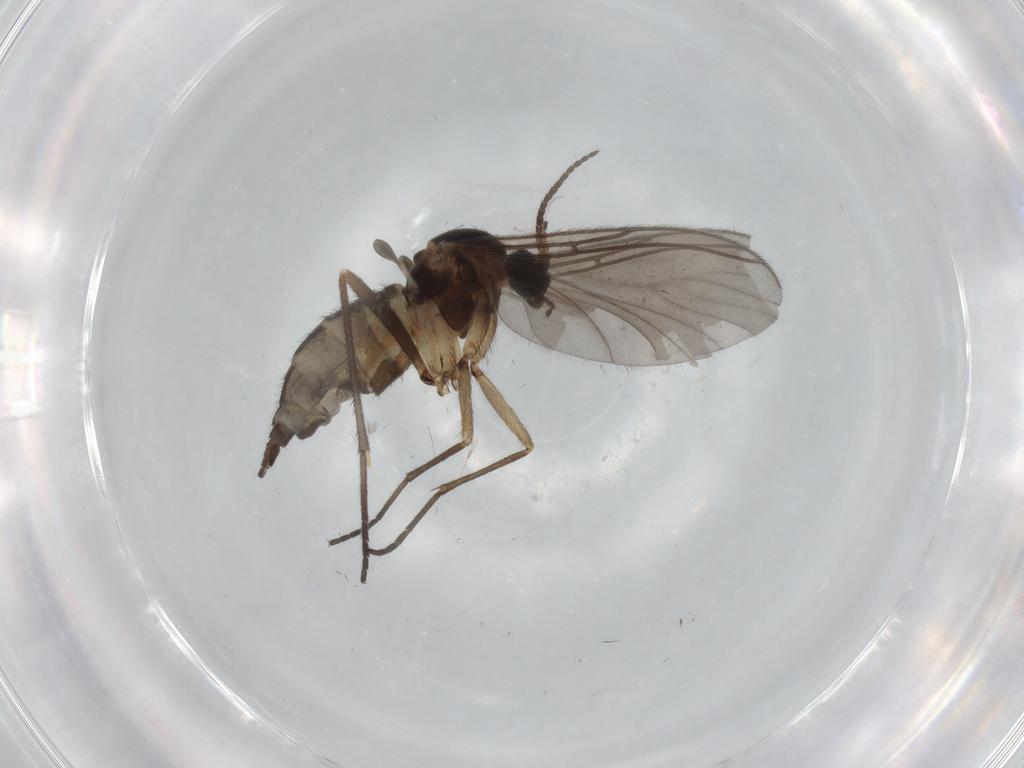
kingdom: Animalia
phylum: Arthropoda
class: Insecta
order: Diptera
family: Sciaridae
